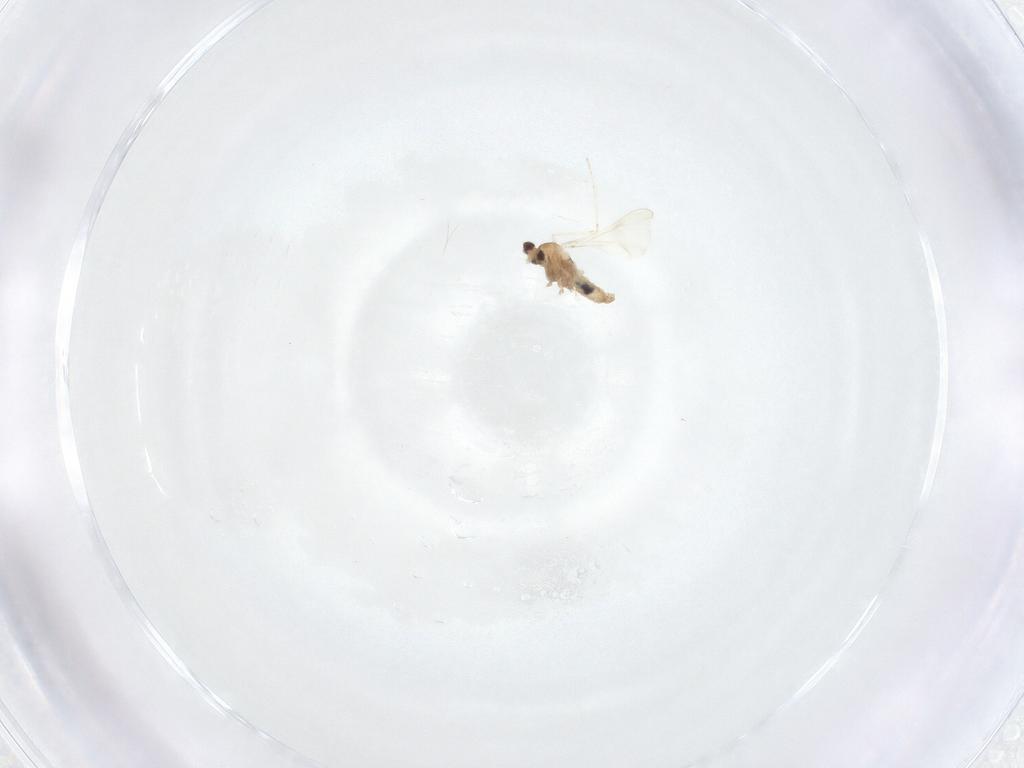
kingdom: Animalia
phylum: Arthropoda
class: Insecta
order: Diptera
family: Cecidomyiidae
